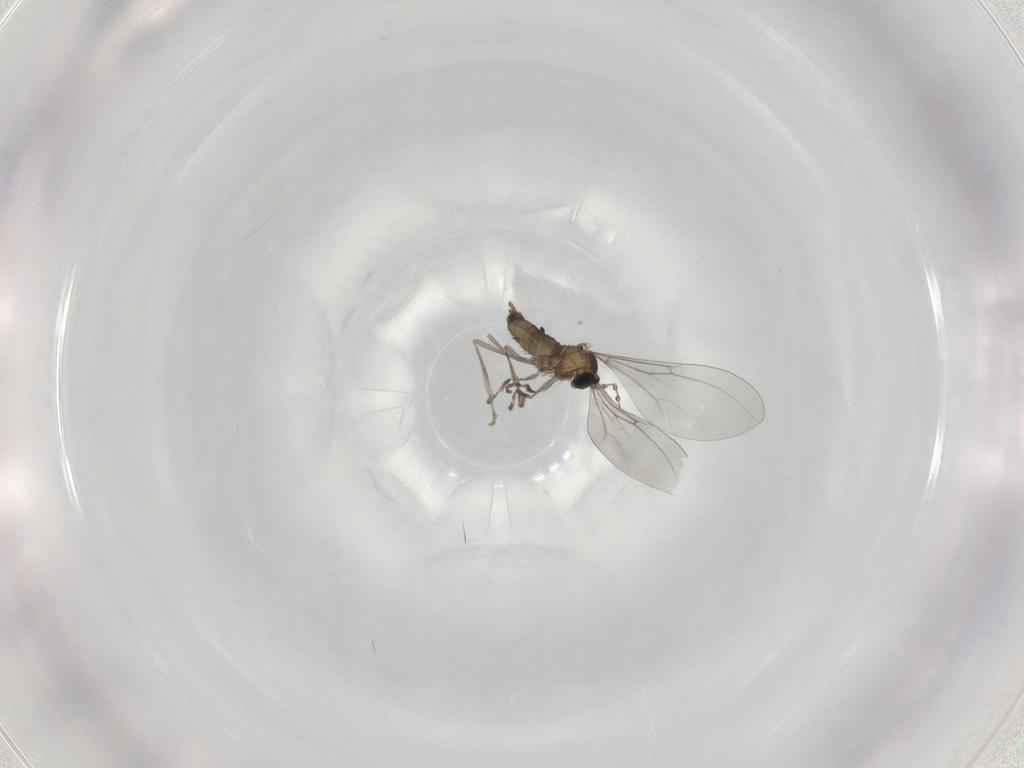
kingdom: Animalia
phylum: Arthropoda
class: Insecta
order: Diptera
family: Cecidomyiidae
